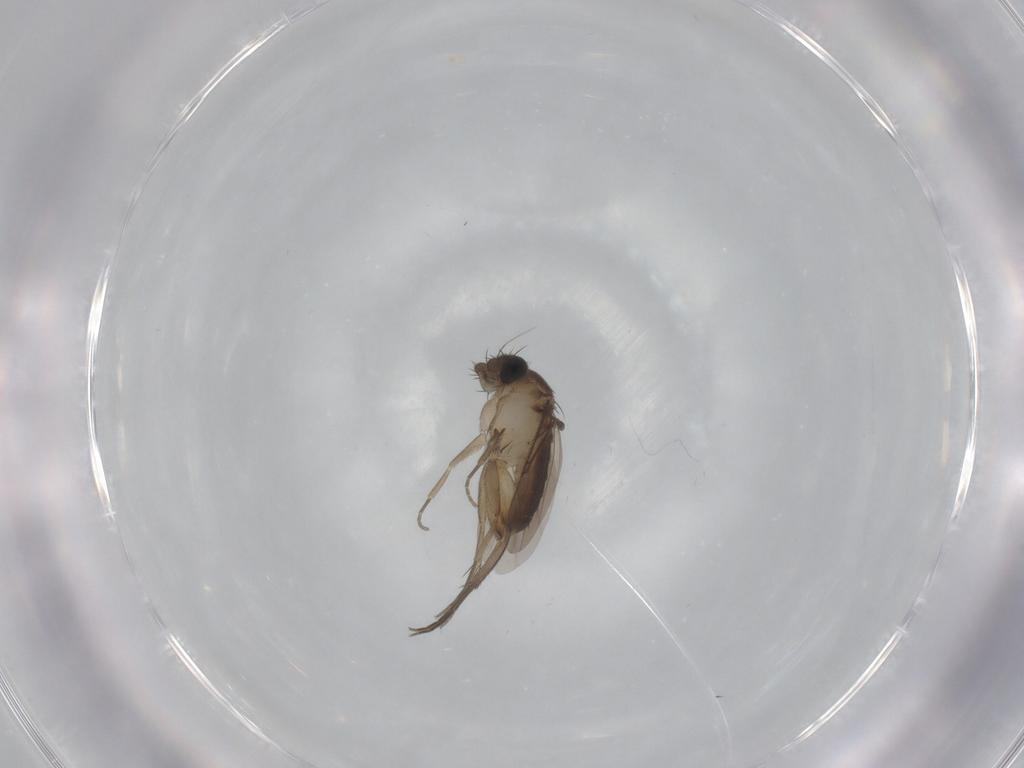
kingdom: Animalia
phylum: Arthropoda
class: Insecta
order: Diptera
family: Phoridae
